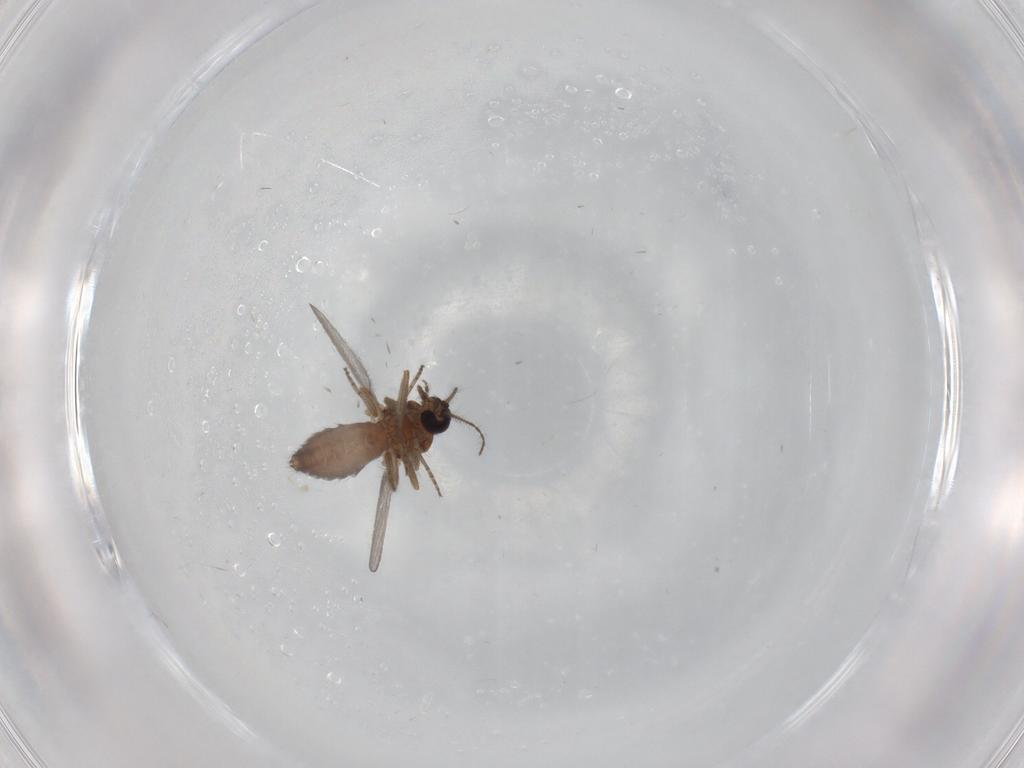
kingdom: Animalia
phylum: Arthropoda
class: Insecta
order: Diptera
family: Ceratopogonidae
